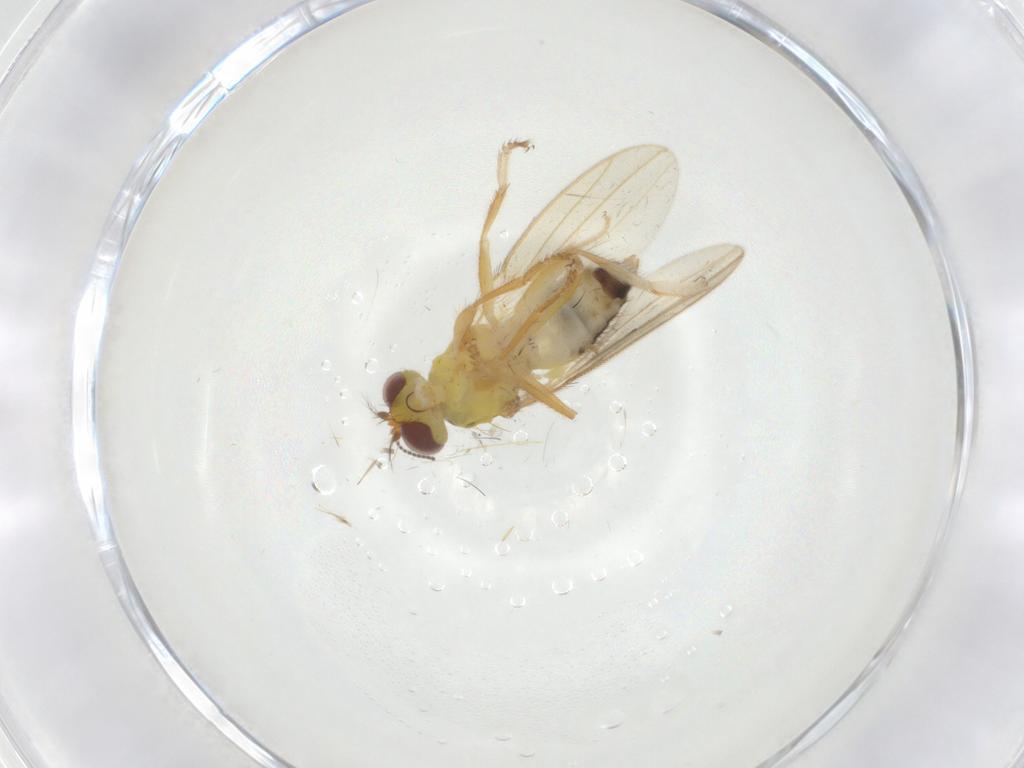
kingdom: Animalia
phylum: Arthropoda
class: Insecta
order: Diptera
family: Periscelididae
